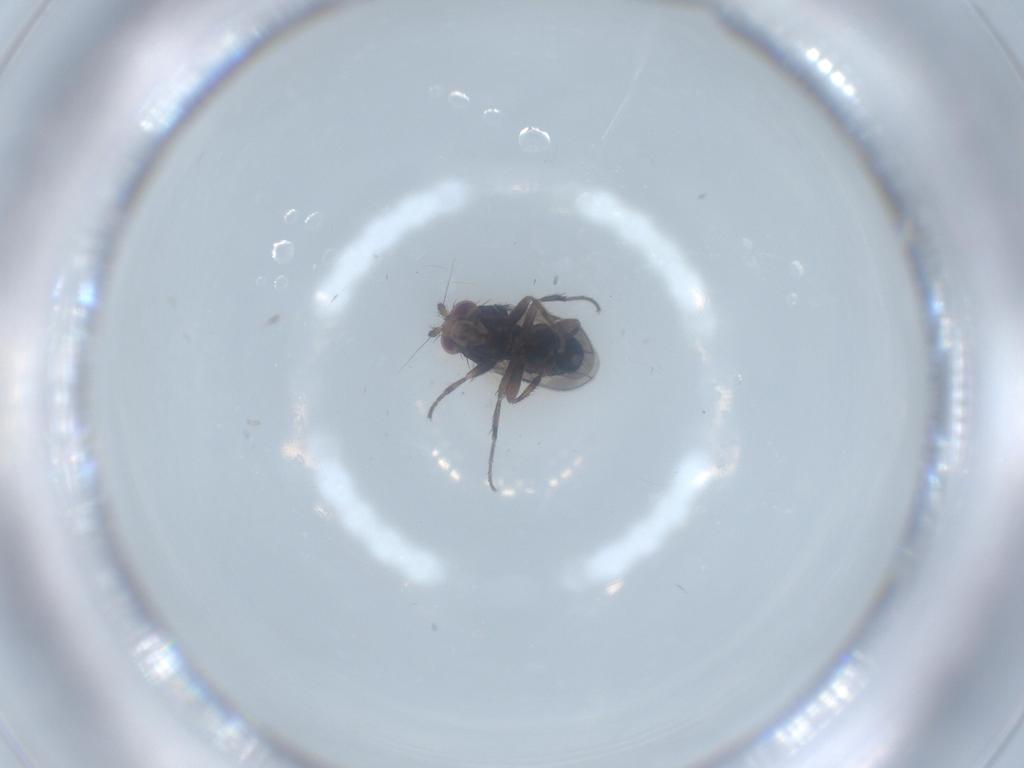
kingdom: Animalia
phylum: Arthropoda
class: Insecta
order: Diptera
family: Sphaeroceridae
